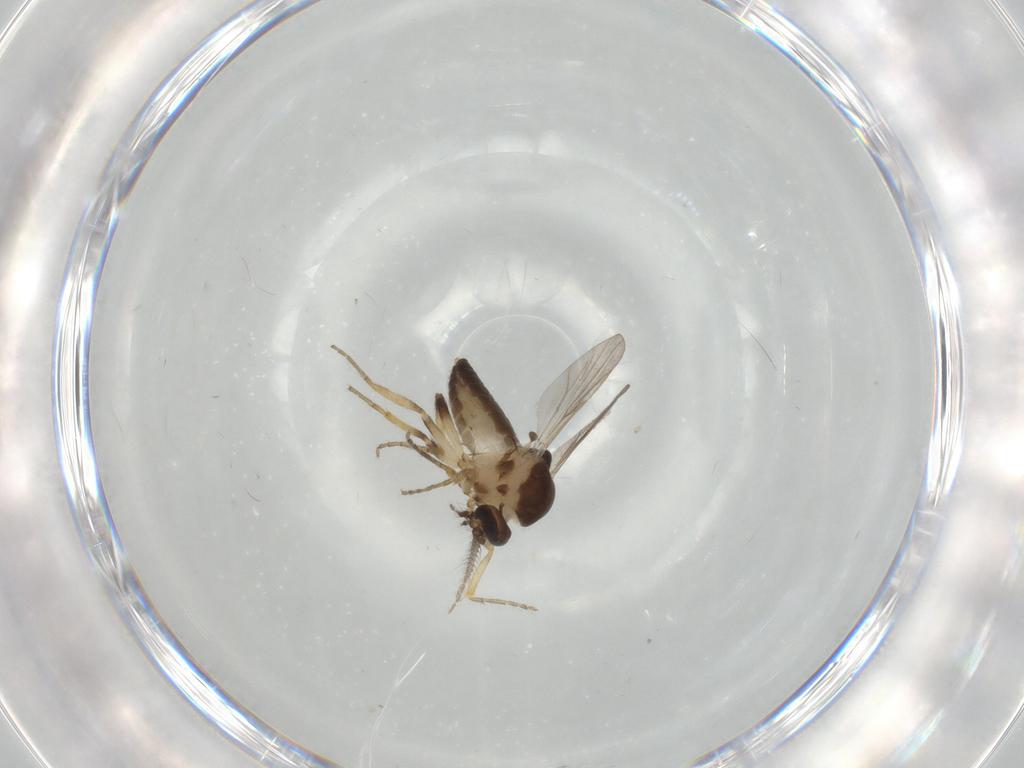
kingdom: Animalia
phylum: Arthropoda
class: Insecta
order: Diptera
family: Ceratopogonidae
